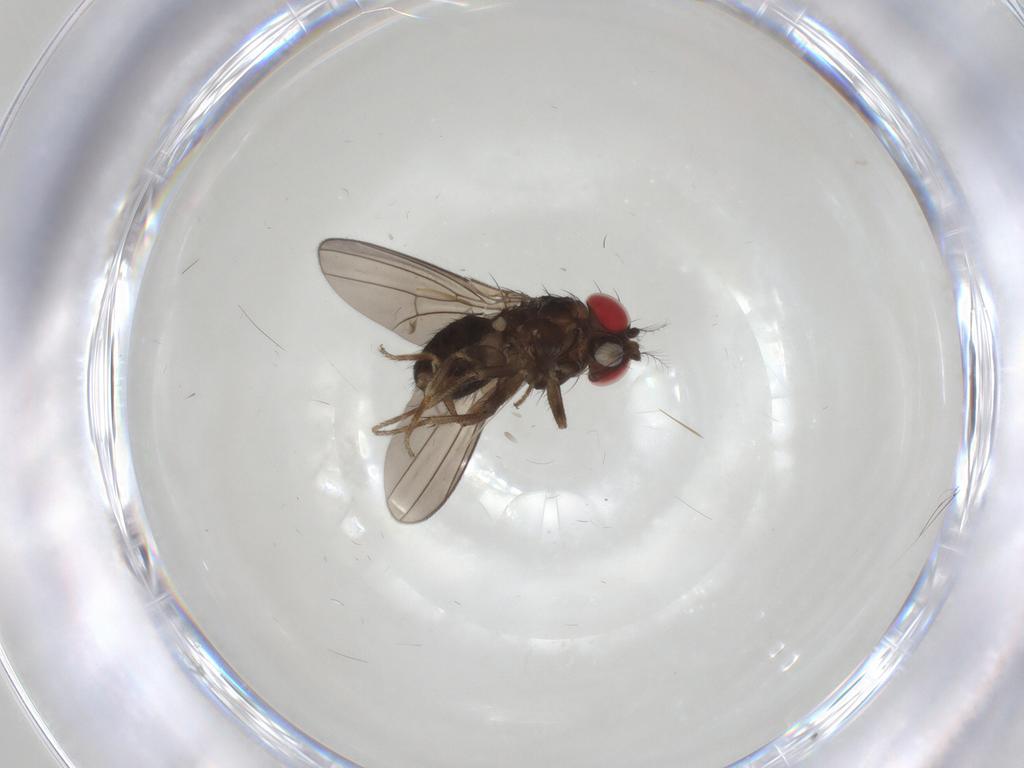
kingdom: Animalia
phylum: Arthropoda
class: Insecta
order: Diptera
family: Drosophilidae
